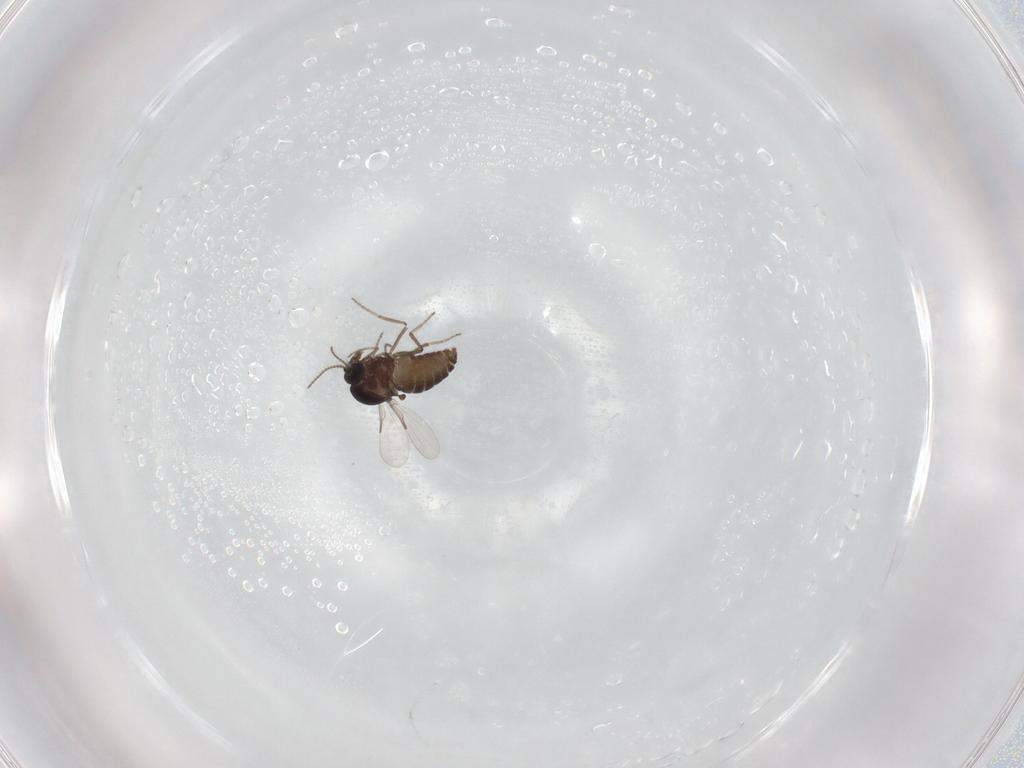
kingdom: Animalia
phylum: Arthropoda
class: Insecta
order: Diptera
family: Ceratopogonidae
